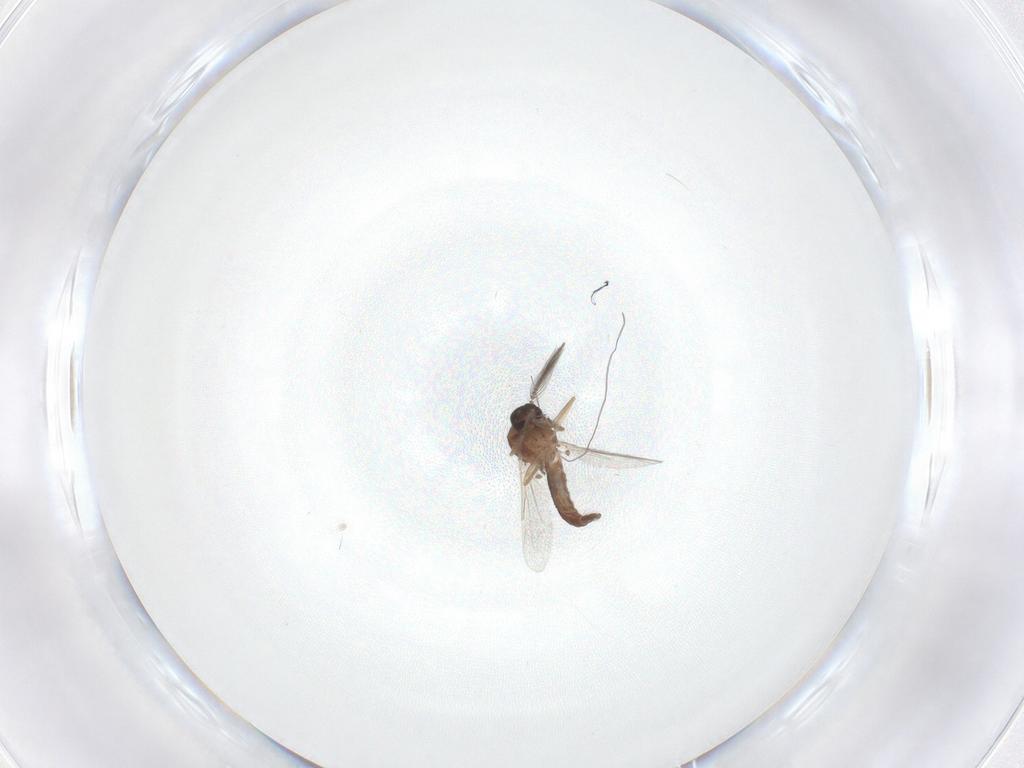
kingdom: Animalia
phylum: Arthropoda
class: Insecta
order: Diptera
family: Ceratopogonidae
